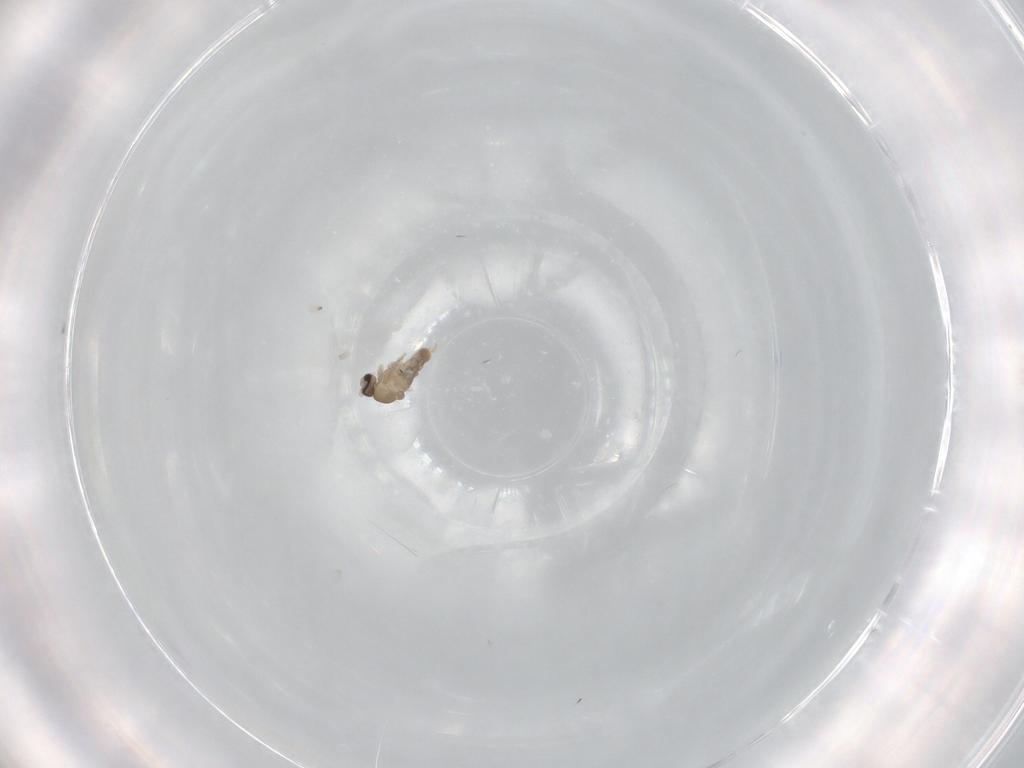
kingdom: Animalia
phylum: Arthropoda
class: Insecta
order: Diptera
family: Cecidomyiidae
